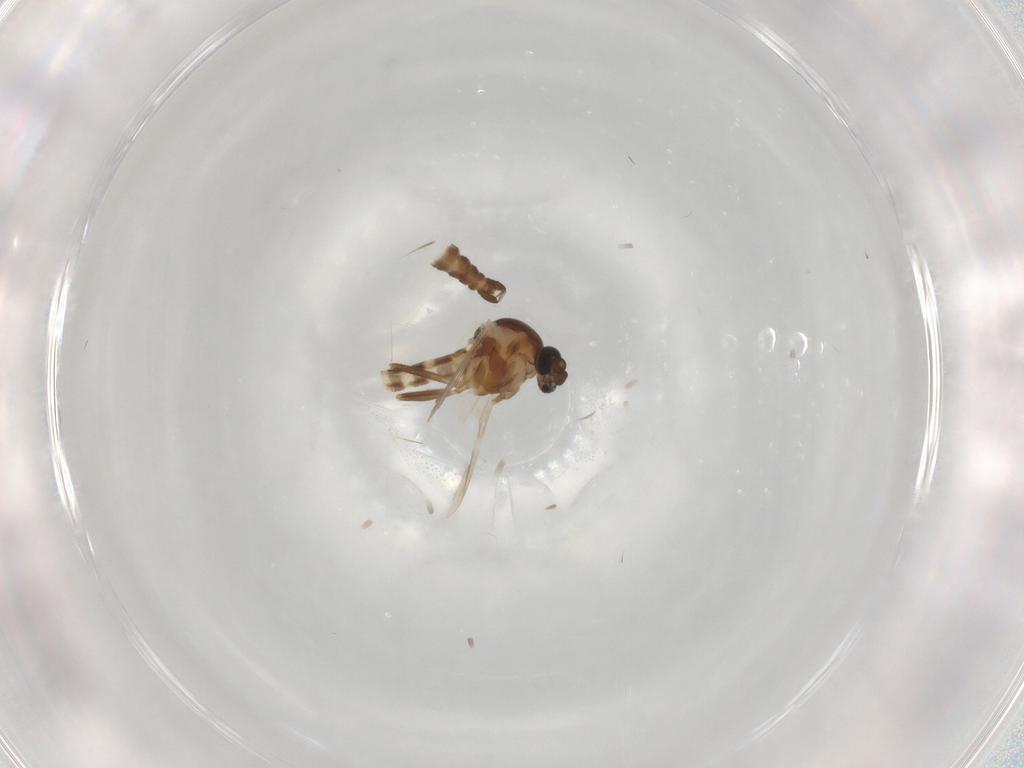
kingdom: Animalia
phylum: Arthropoda
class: Insecta
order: Diptera
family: Ceratopogonidae
